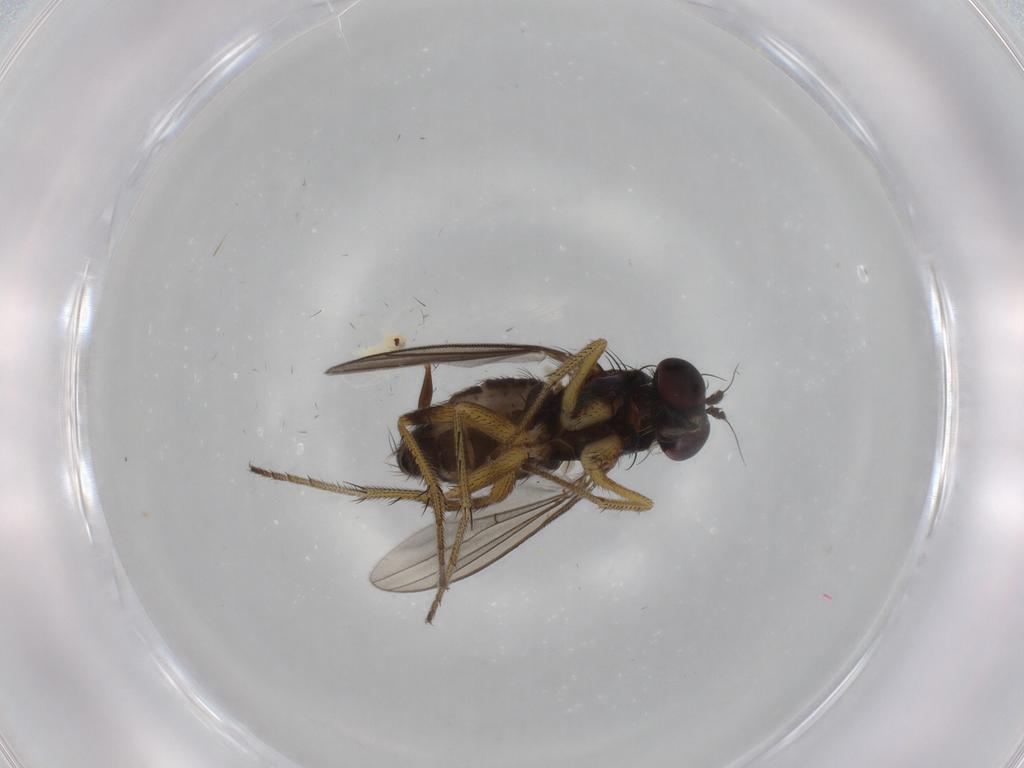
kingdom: Animalia
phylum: Arthropoda
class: Insecta
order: Diptera
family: Dolichopodidae
